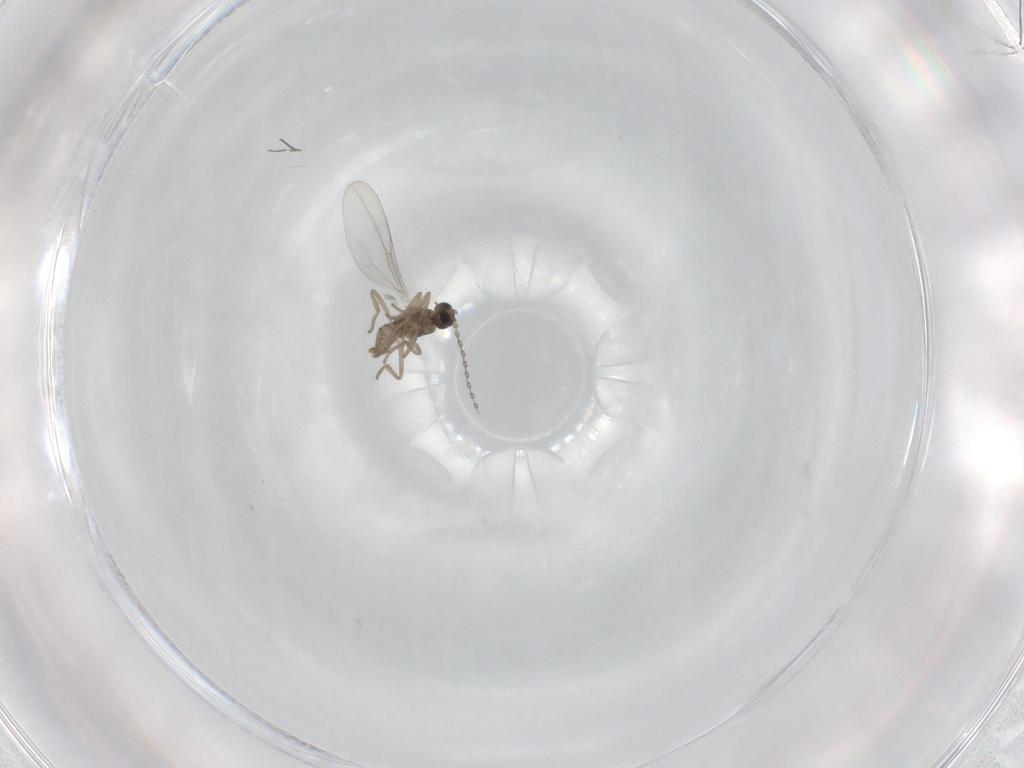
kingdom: Animalia
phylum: Arthropoda
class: Insecta
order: Diptera
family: Cecidomyiidae
